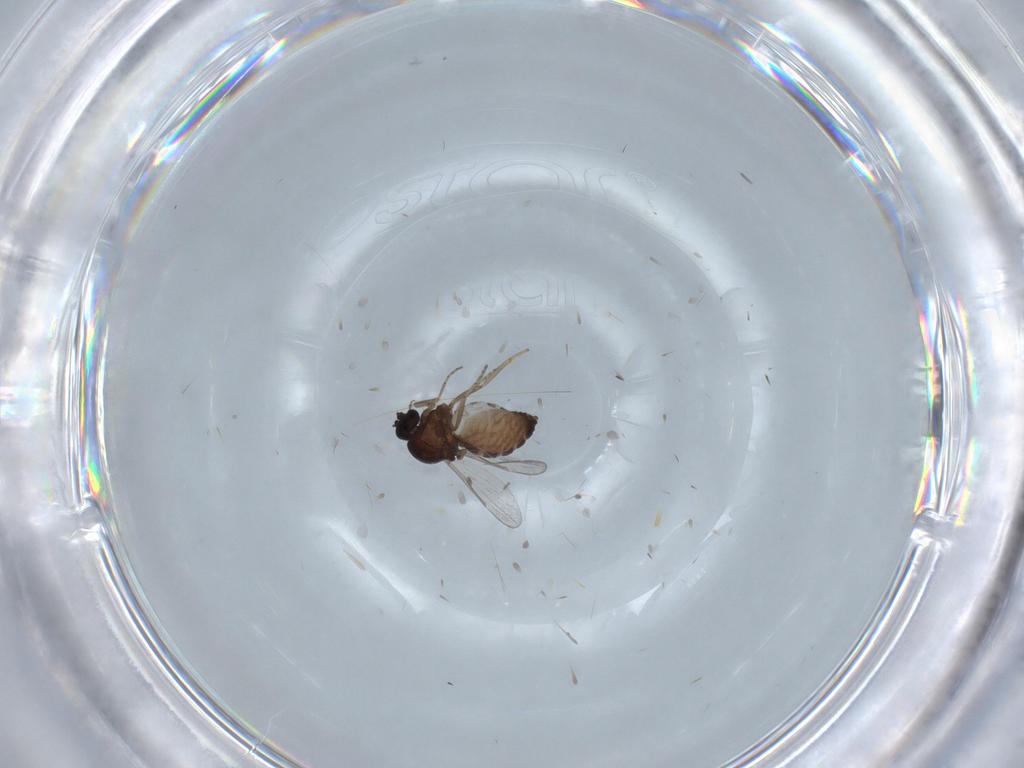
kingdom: Animalia
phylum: Arthropoda
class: Insecta
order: Diptera
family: Ceratopogonidae
